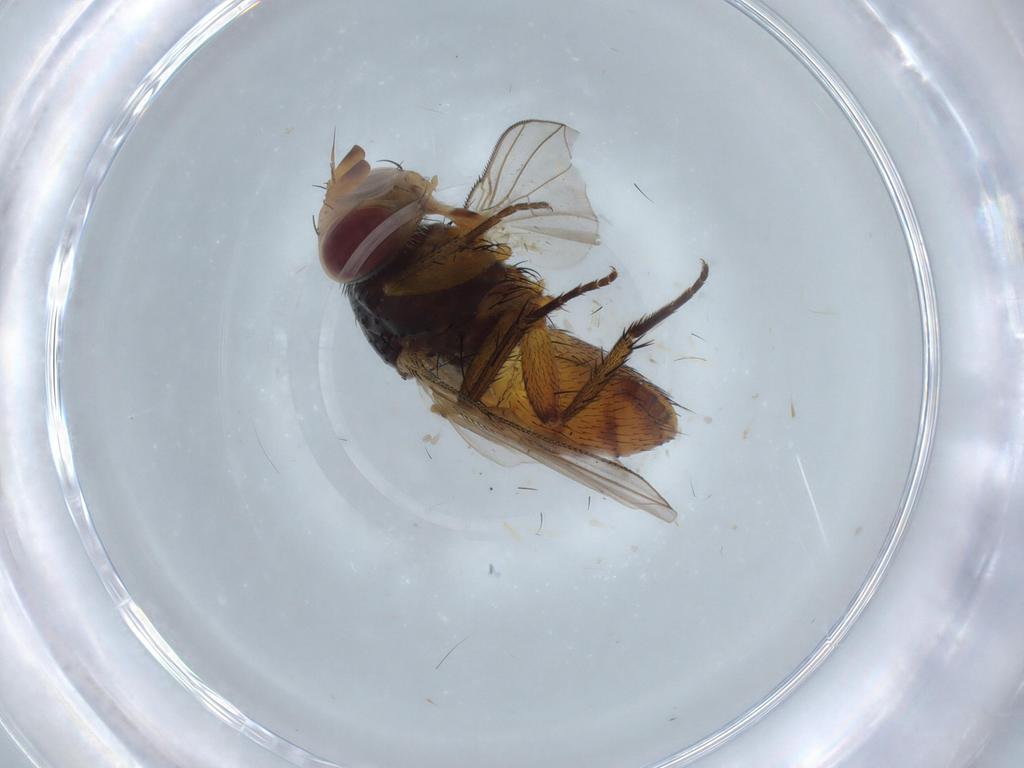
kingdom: Animalia
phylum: Arthropoda
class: Insecta
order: Diptera
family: Tachinidae
